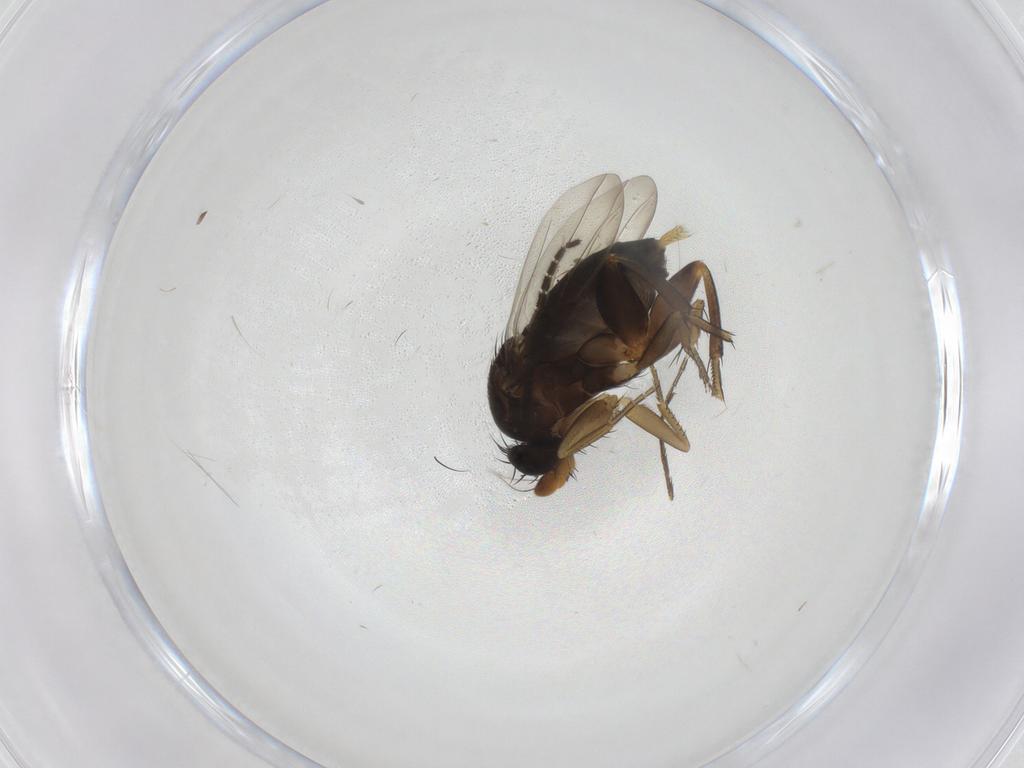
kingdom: Animalia
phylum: Arthropoda
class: Insecta
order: Diptera
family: Phoridae
